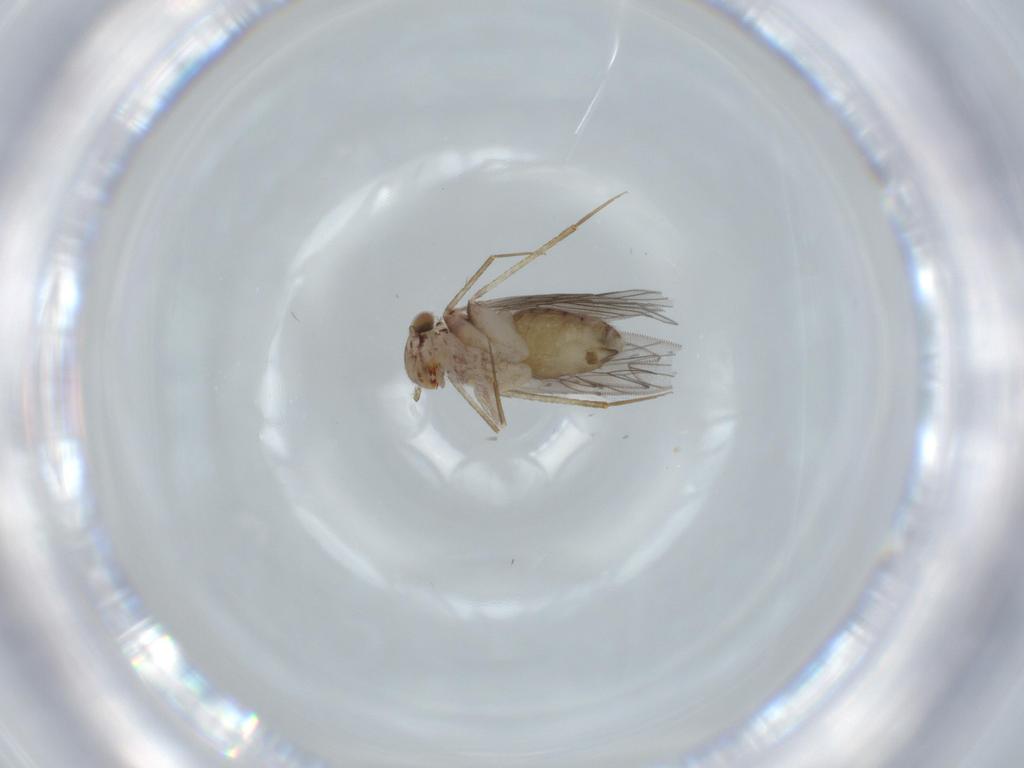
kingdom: Animalia
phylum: Arthropoda
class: Insecta
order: Psocodea
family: Lepidopsocidae
